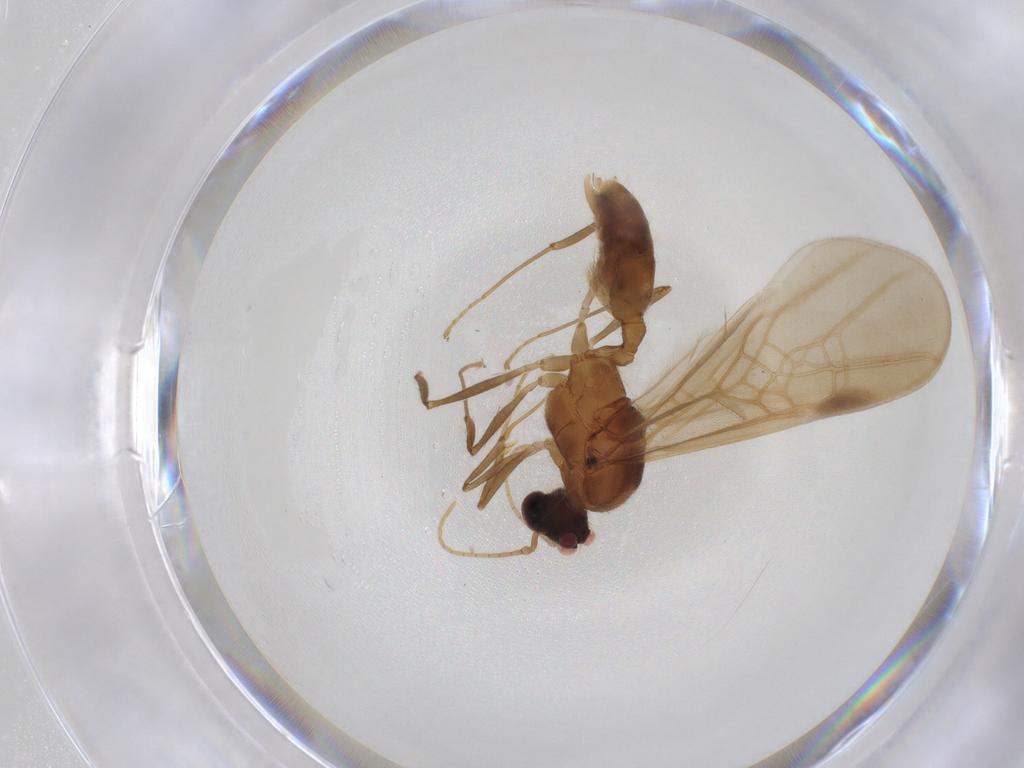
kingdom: Animalia
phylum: Arthropoda
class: Insecta
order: Hymenoptera
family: Formicidae
